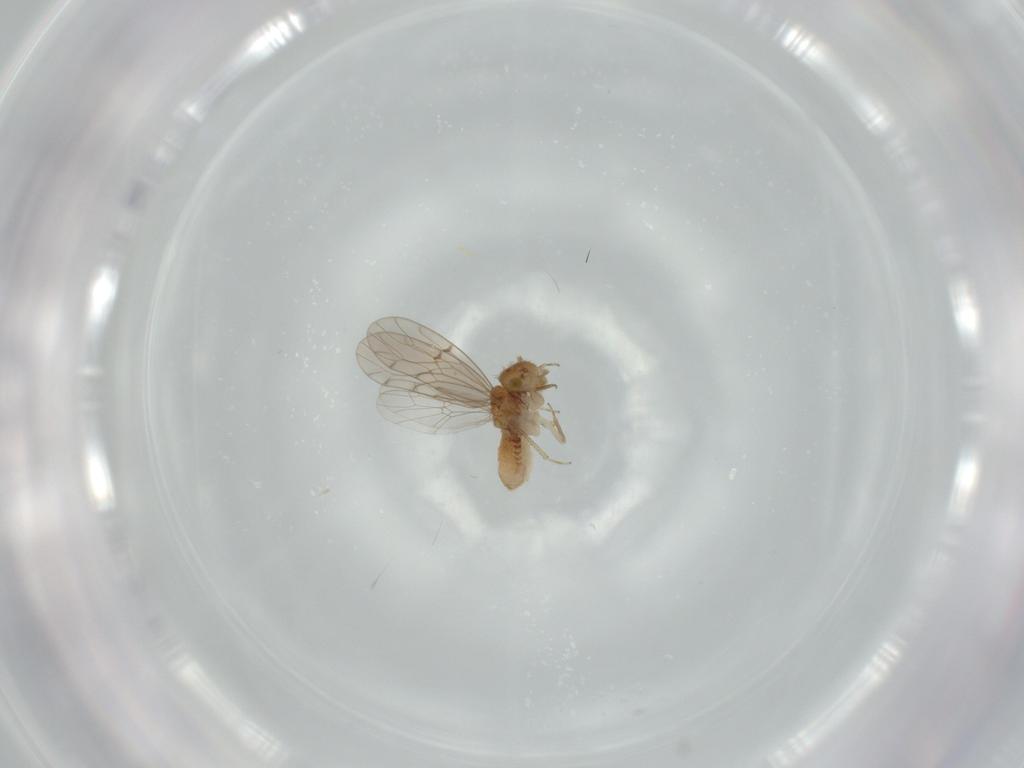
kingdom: Animalia
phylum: Arthropoda
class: Insecta
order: Psocodea
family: Ectopsocidae
